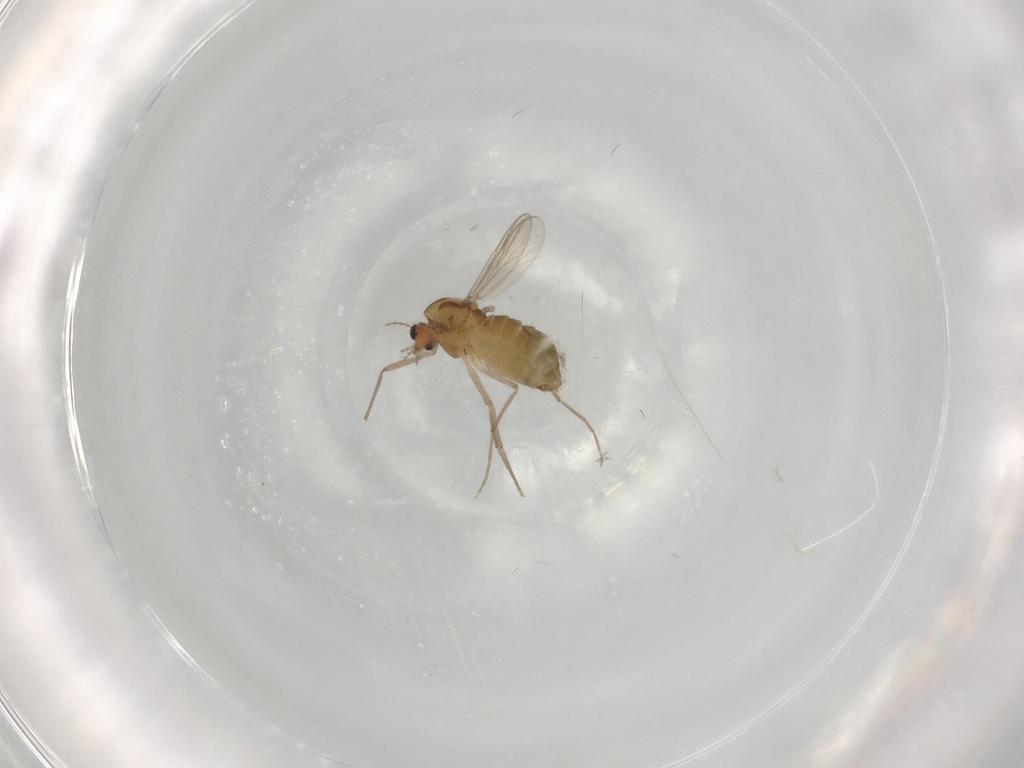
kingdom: Animalia
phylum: Arthropoda
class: Insecta
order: Diptera
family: Chironomidae
